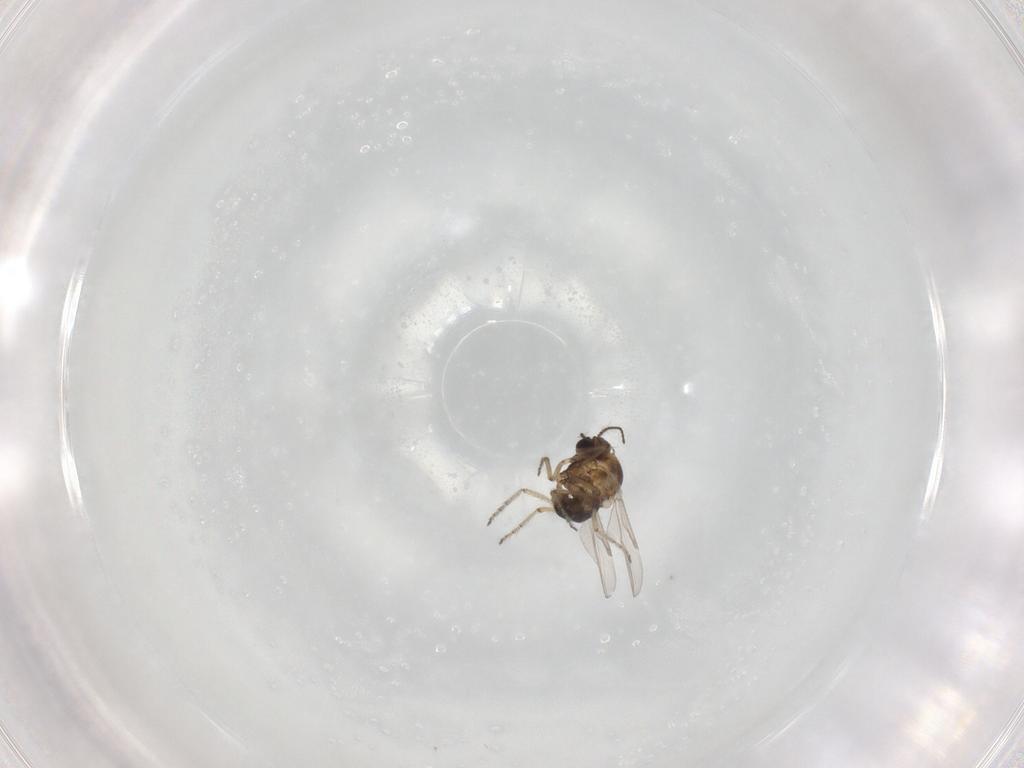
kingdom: Animalia
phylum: Arthropoda
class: Insecta
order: Diptera
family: Ceratopogonidae
